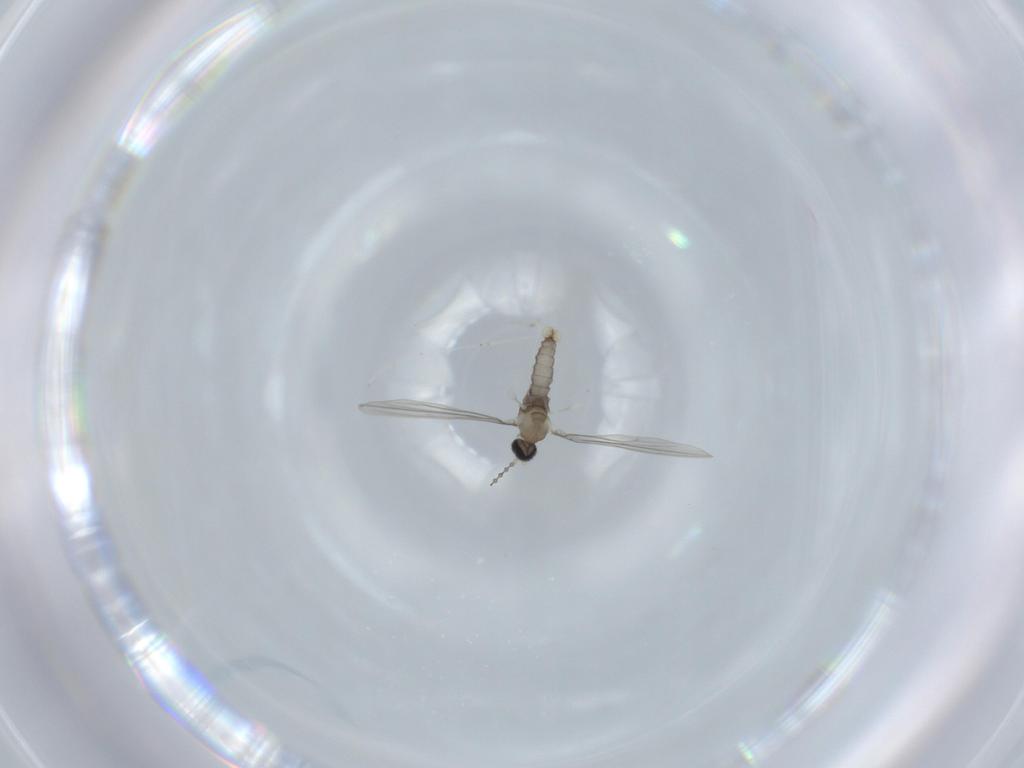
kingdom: Animalia
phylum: Arthropoda
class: Insecta
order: Diptera
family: Cecidomyiidae
